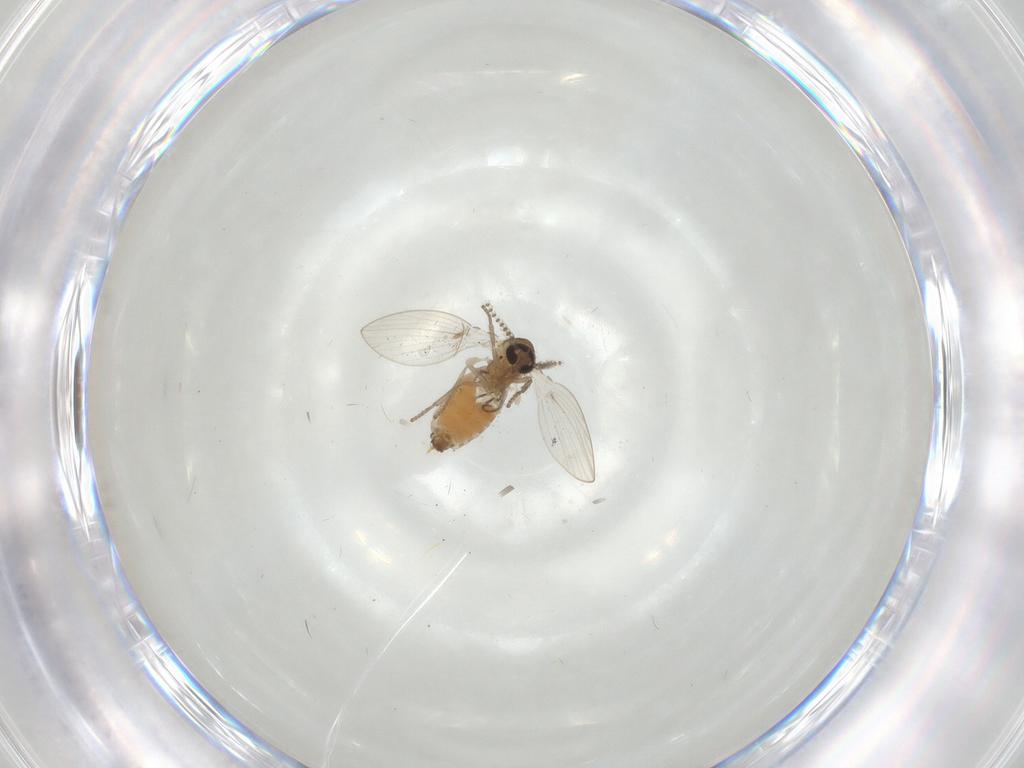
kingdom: Animalia
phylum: Arthropoda
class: Insecta
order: Diptera
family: Psychodidae
